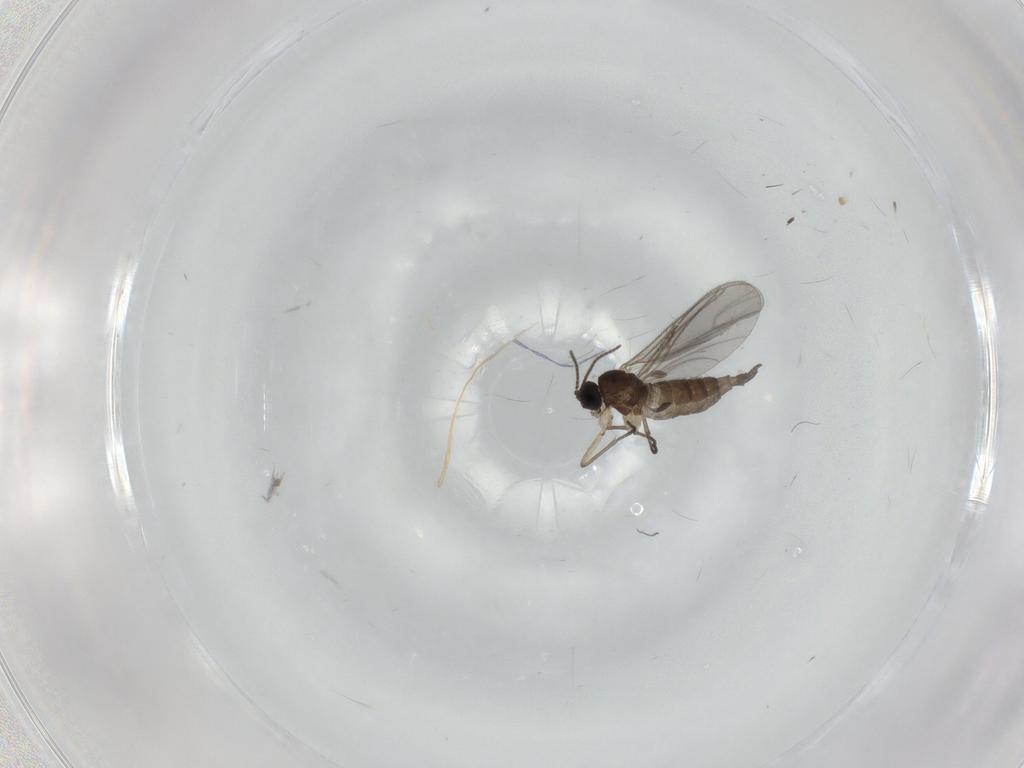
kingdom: Animalia
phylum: Arthropoda
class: Insecta
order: Diptera
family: Sciaridae
